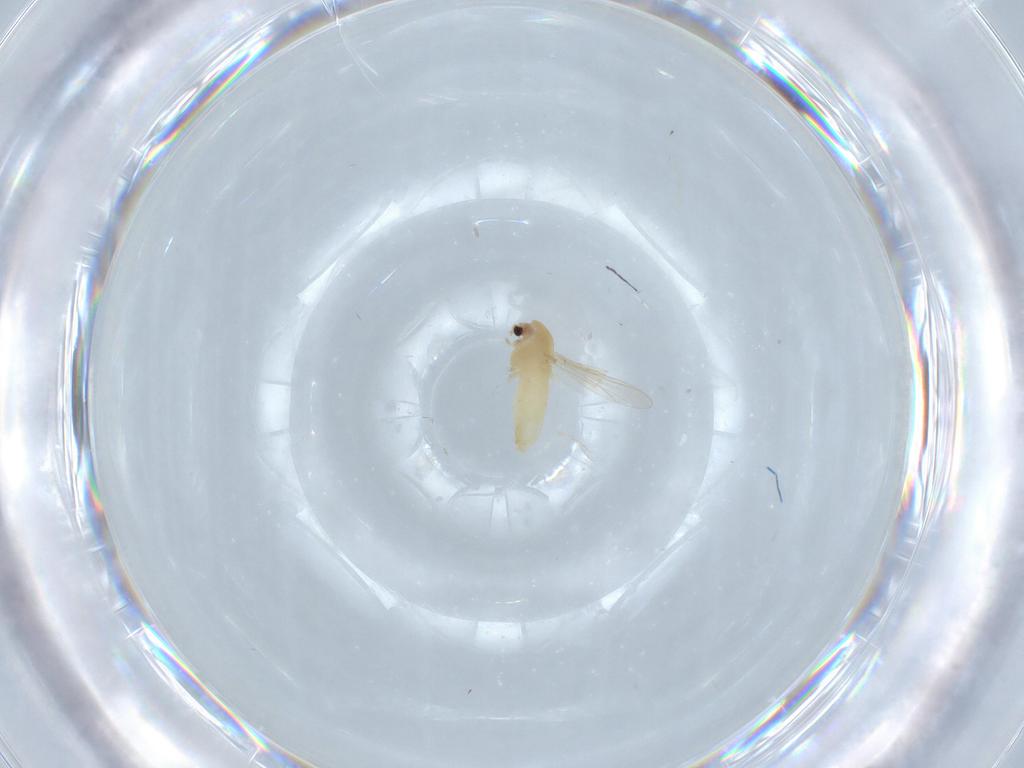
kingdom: Animalia
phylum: Arthropoda
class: Insecta
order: Diptera
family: Chironomidae
